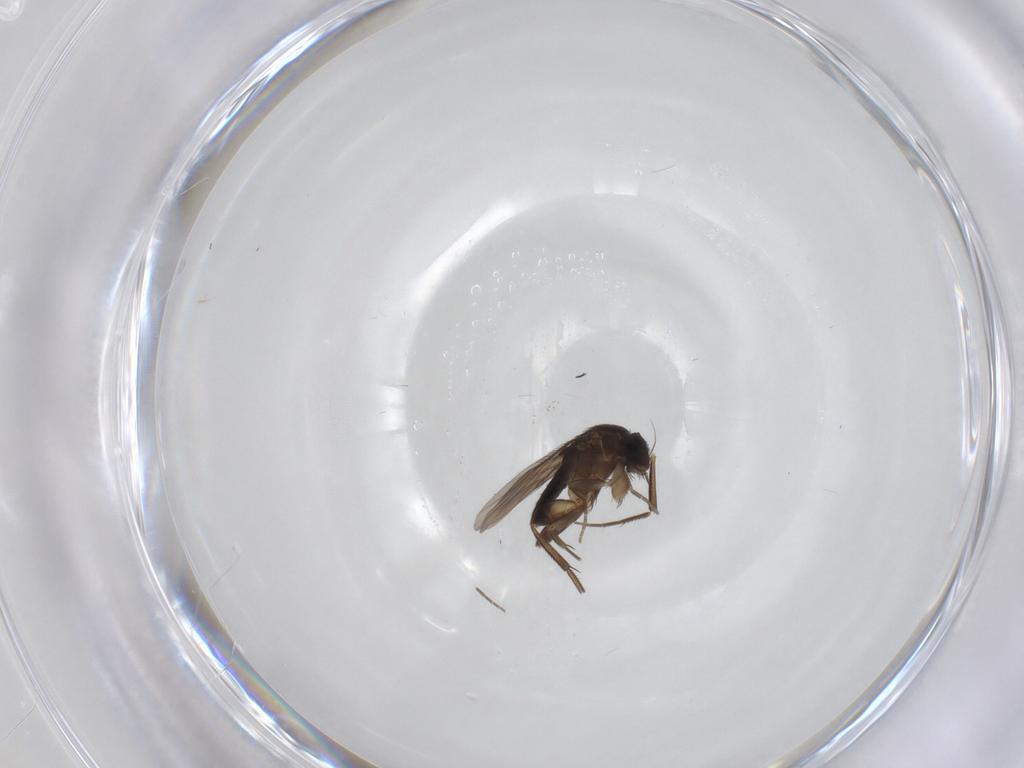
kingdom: Animalia
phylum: Arthropoda
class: Insecta
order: Diptera
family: Phoridae
